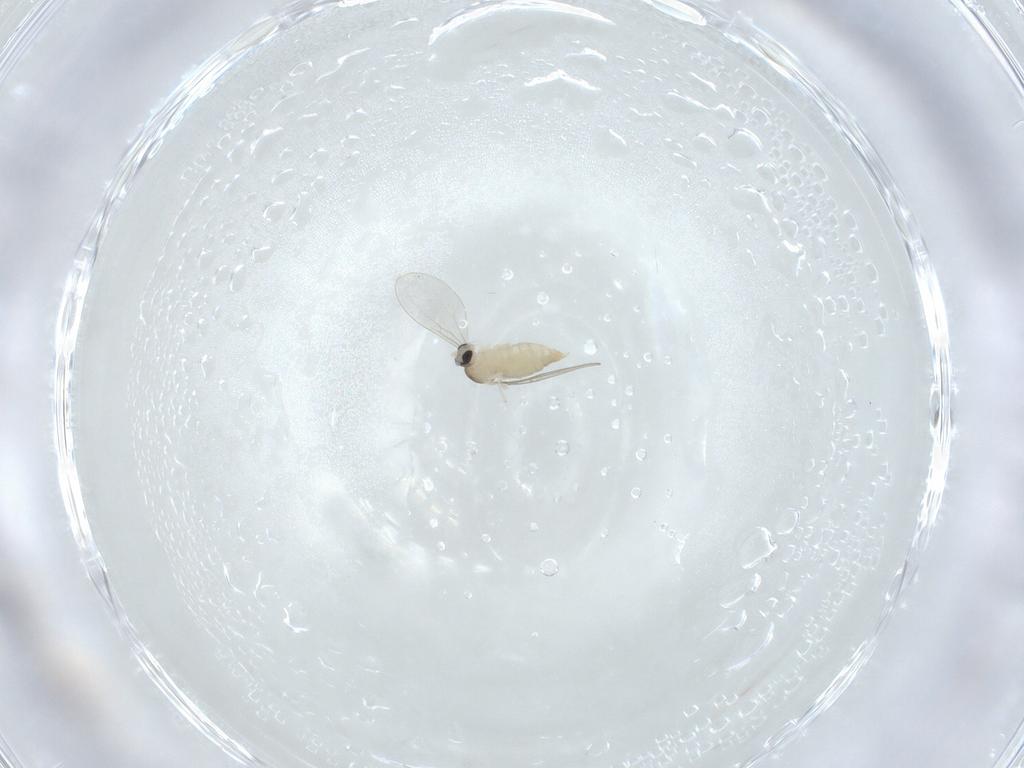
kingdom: Animalia
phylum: Arthropoda
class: Insecta
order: Diptera
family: Cecidomyiidae
